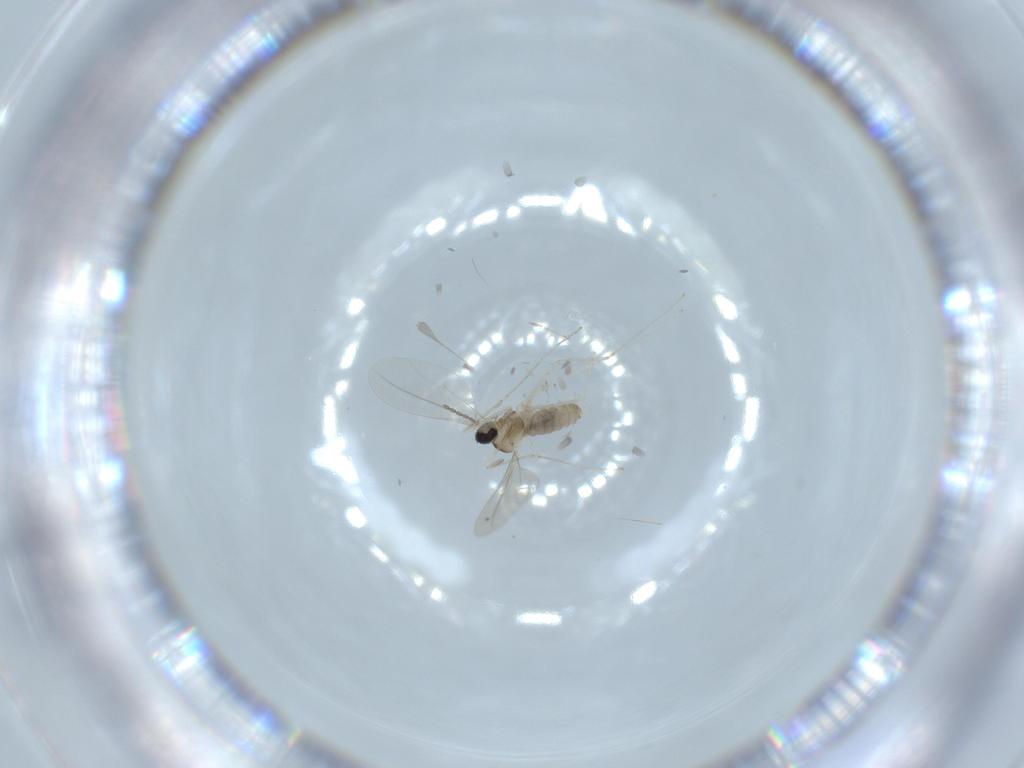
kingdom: Animalia
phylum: Arthropoda
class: Insecta
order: Diptera
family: Cecidomyiidae
